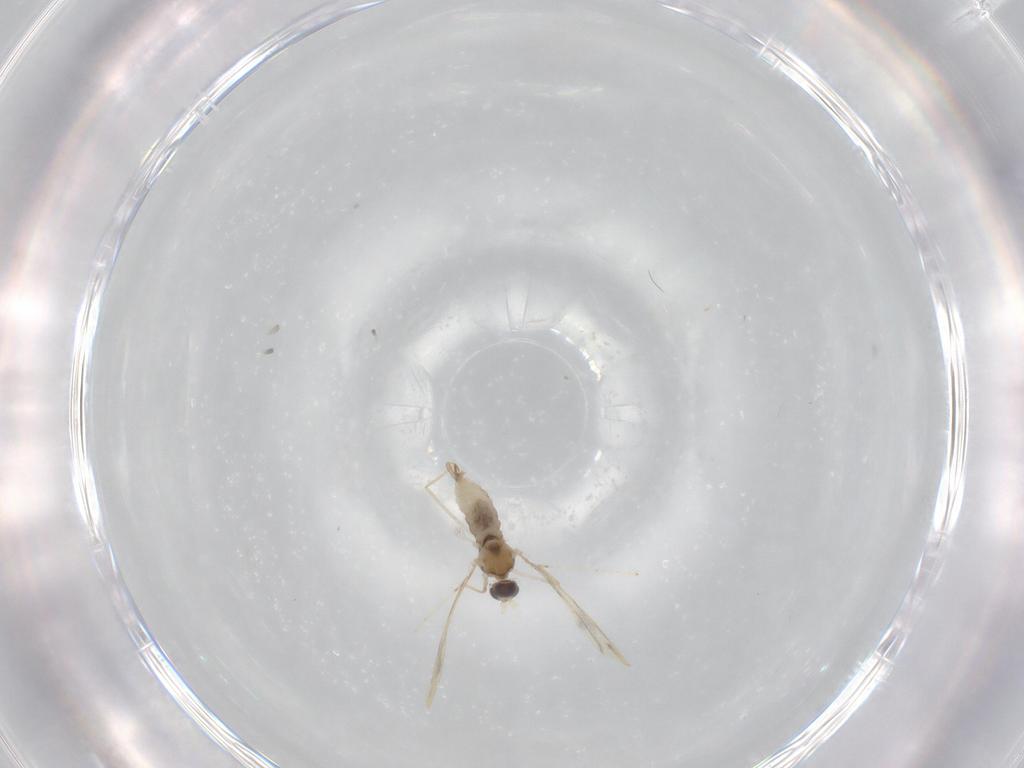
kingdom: Animalia
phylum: Arthropoda
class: Insecta
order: Diptera
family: Cecidomyiidae
